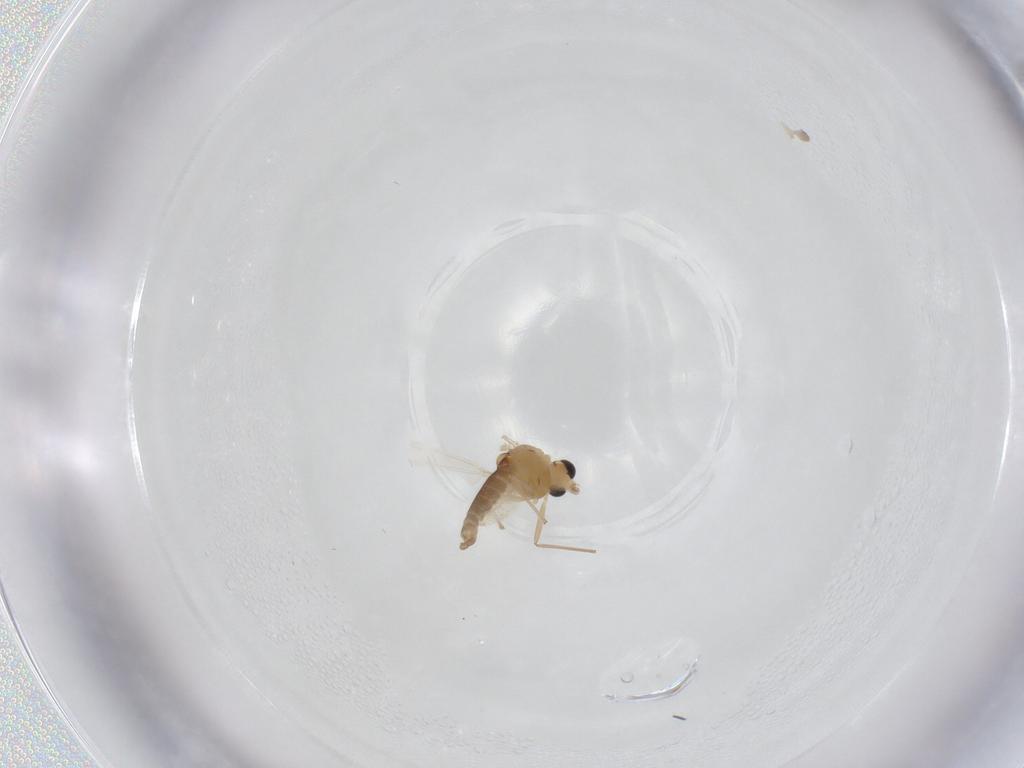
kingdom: Animalia
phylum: Arthropoda
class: Insecta
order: Diptera
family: Chironomidae
